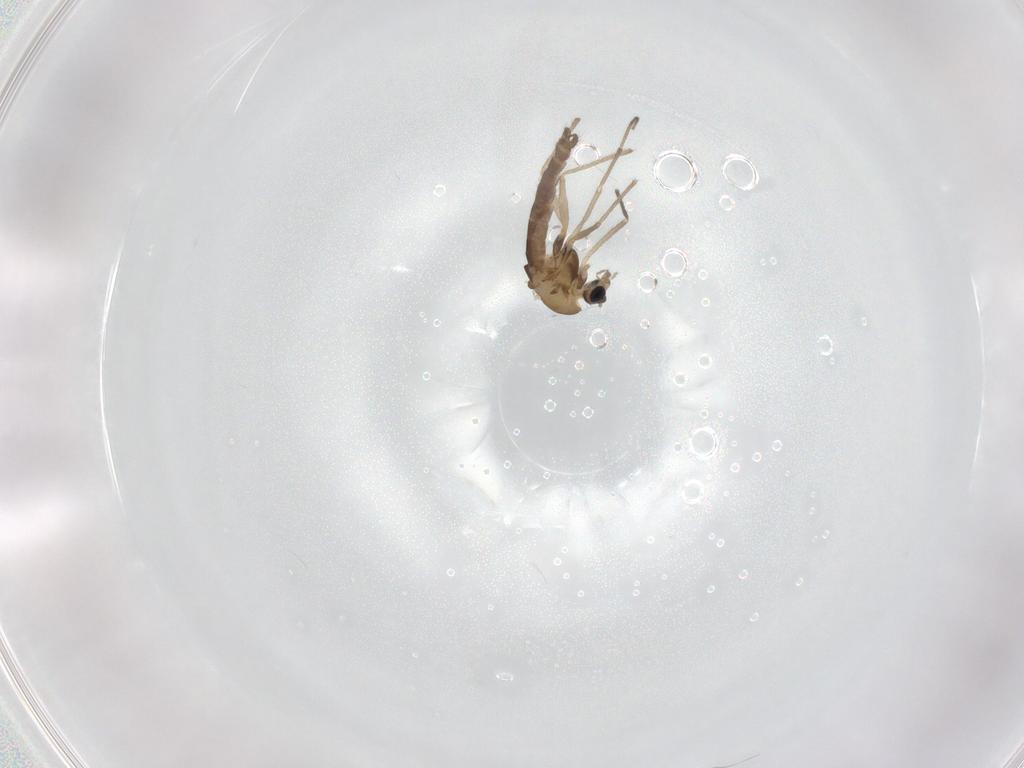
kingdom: Animalia
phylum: Arthropoda
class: Insecta
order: Diptera
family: Chironomidae
